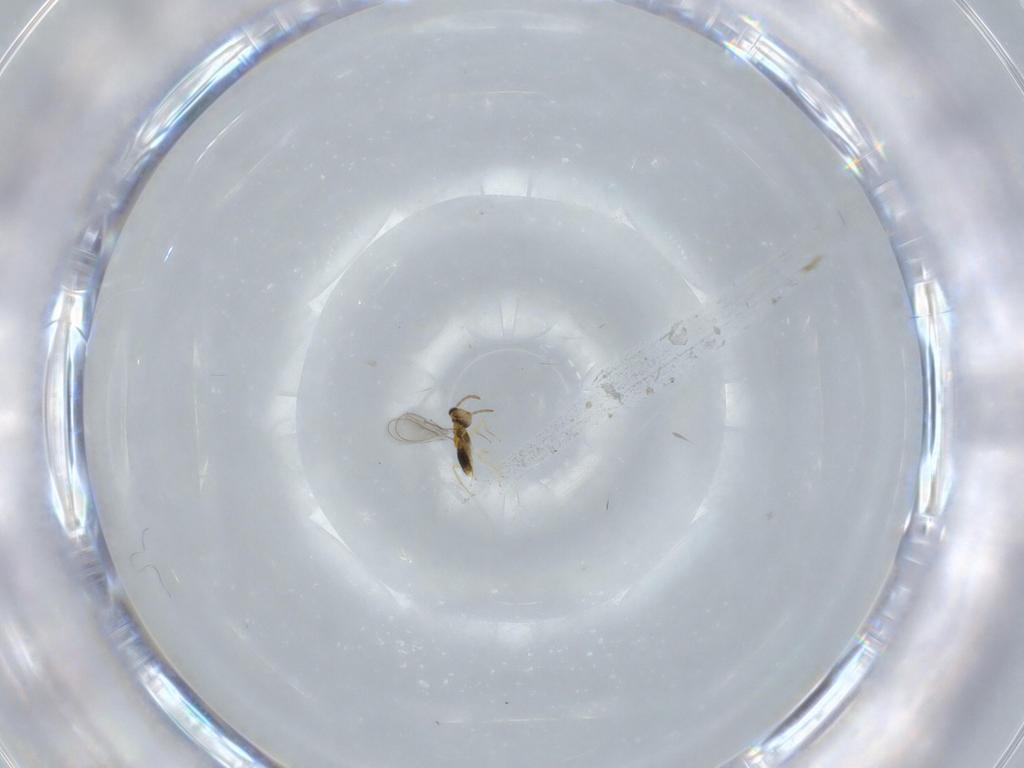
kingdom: Animalia
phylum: Arthropoda
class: Insecta
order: Hymenoptera
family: Aphelinidae
